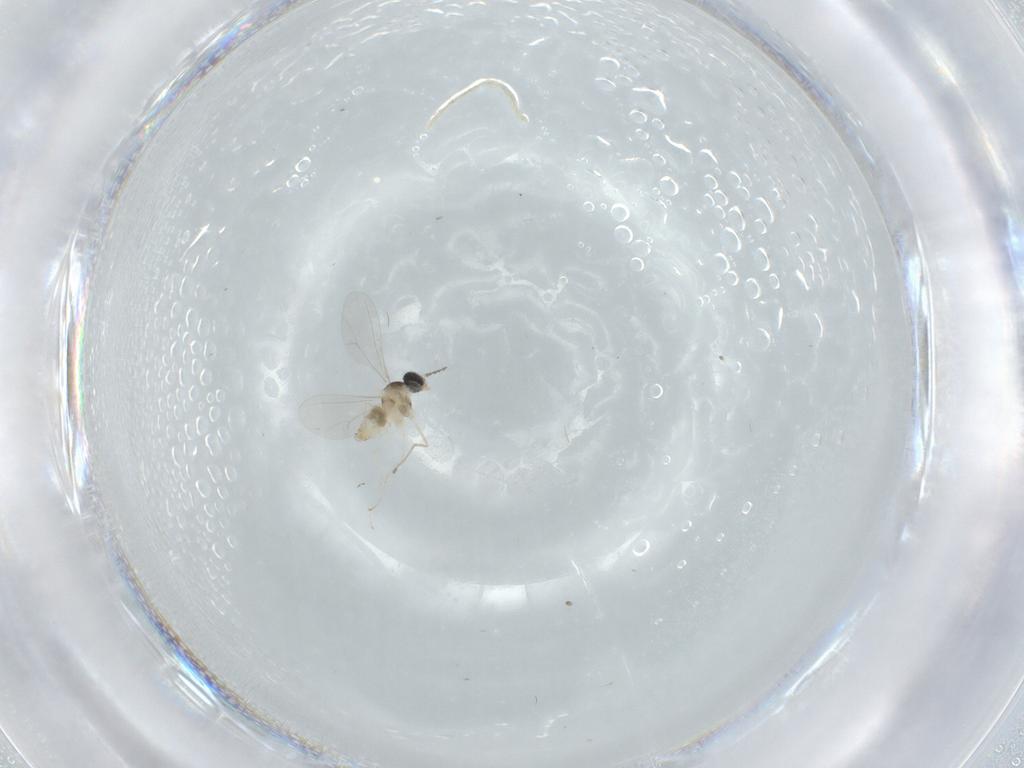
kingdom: Animalia
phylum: Arthropoda
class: Insecta
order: Diptera
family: Cecidomyiidae
